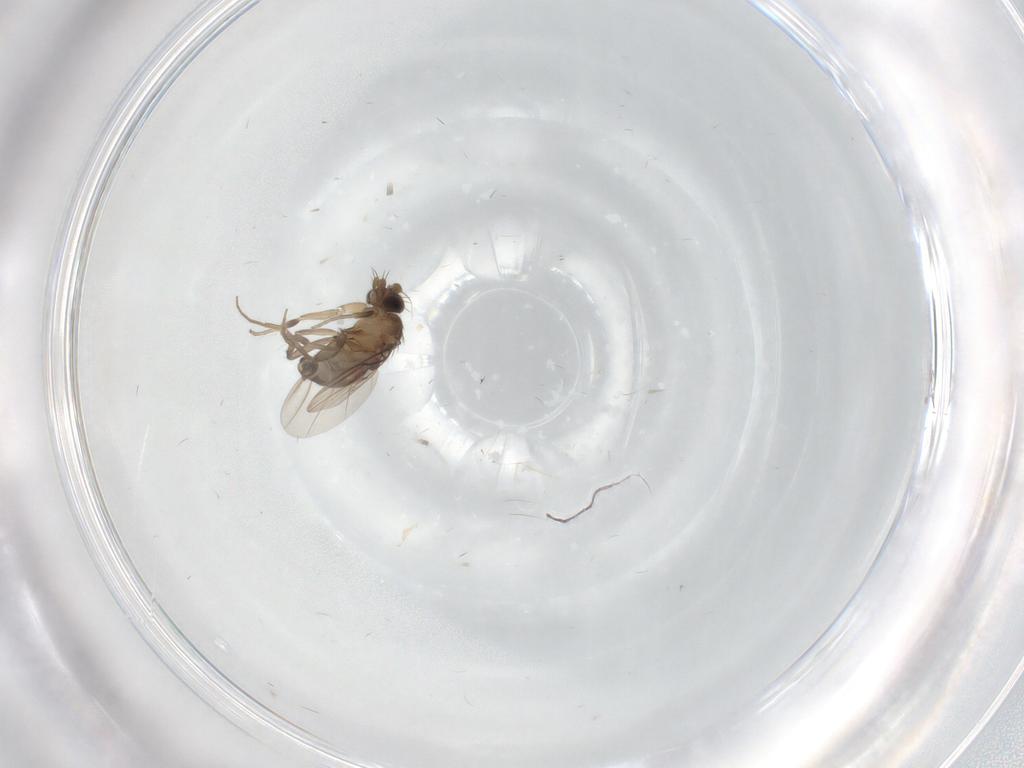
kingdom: Animalia
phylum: Arthropoda
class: Insecta
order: Diptera
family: Phoridae
